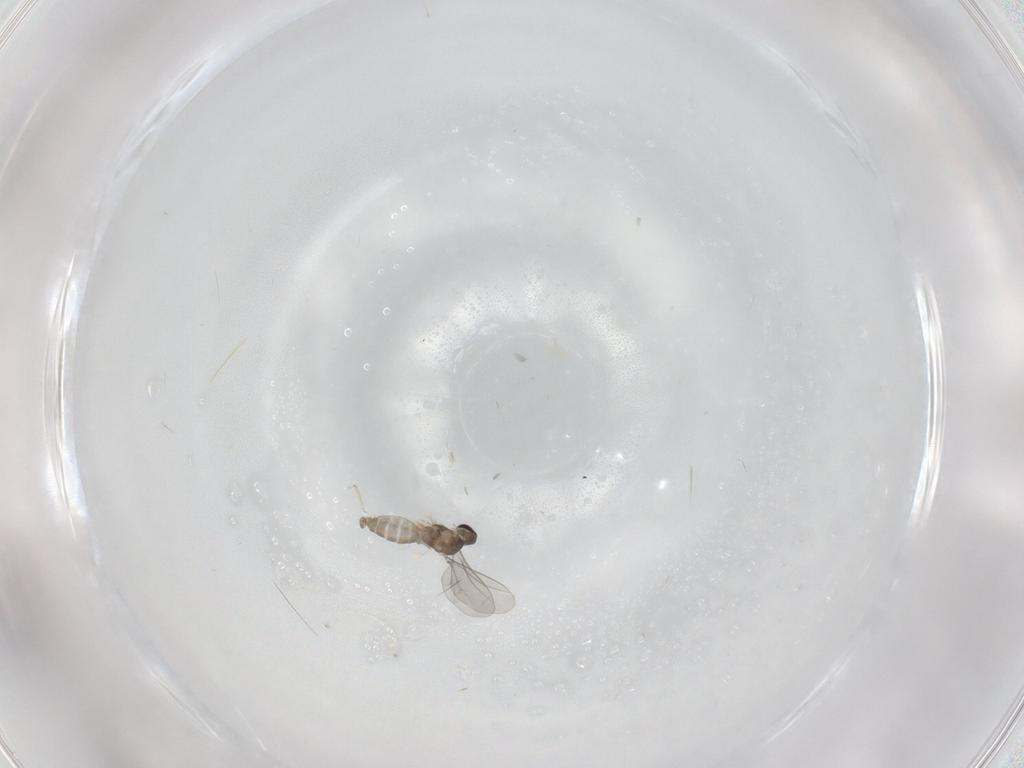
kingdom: Animalia
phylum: Arthropoda
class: Insecta
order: Diptera
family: Cecidomyiidae
